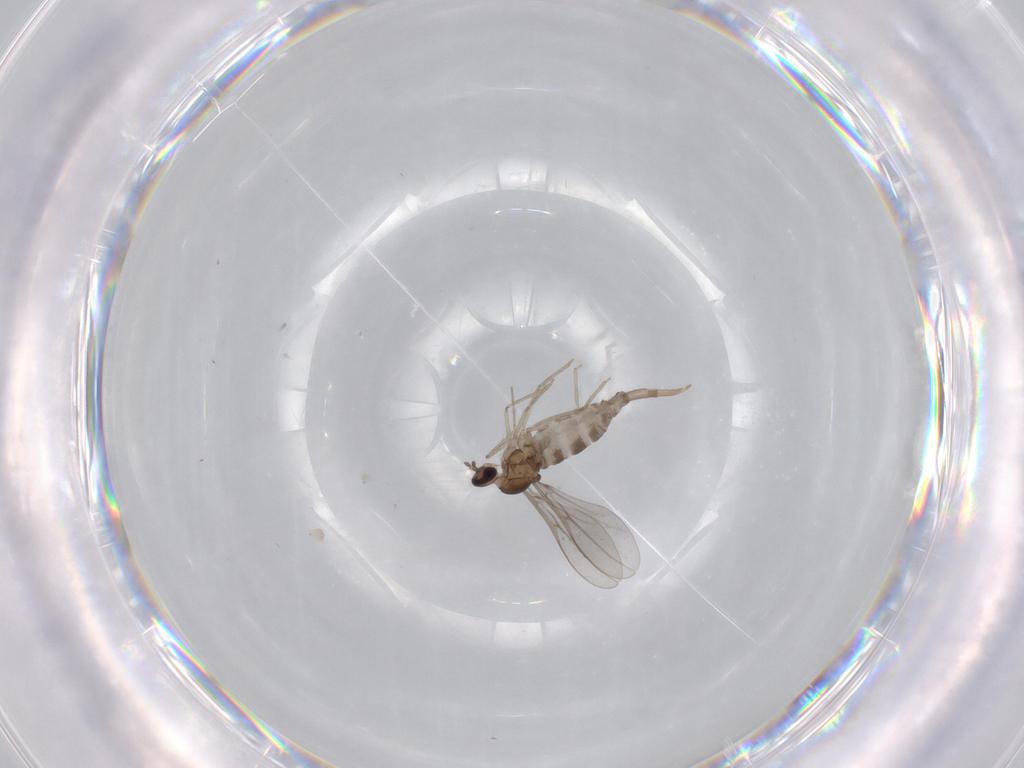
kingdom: Animalia
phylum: Arthropoda
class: Insecta
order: Diptera
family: Cecidomyiidae
